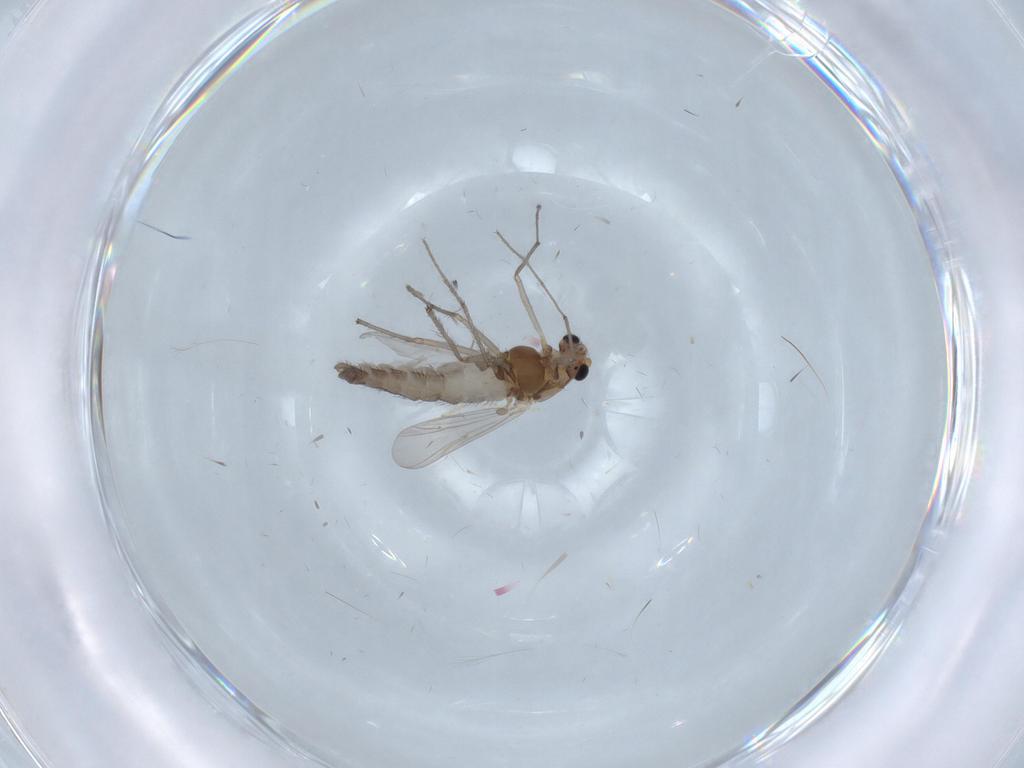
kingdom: Animalia
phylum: Arthropoda
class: Insecta
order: Diptera
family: Chironomidae
